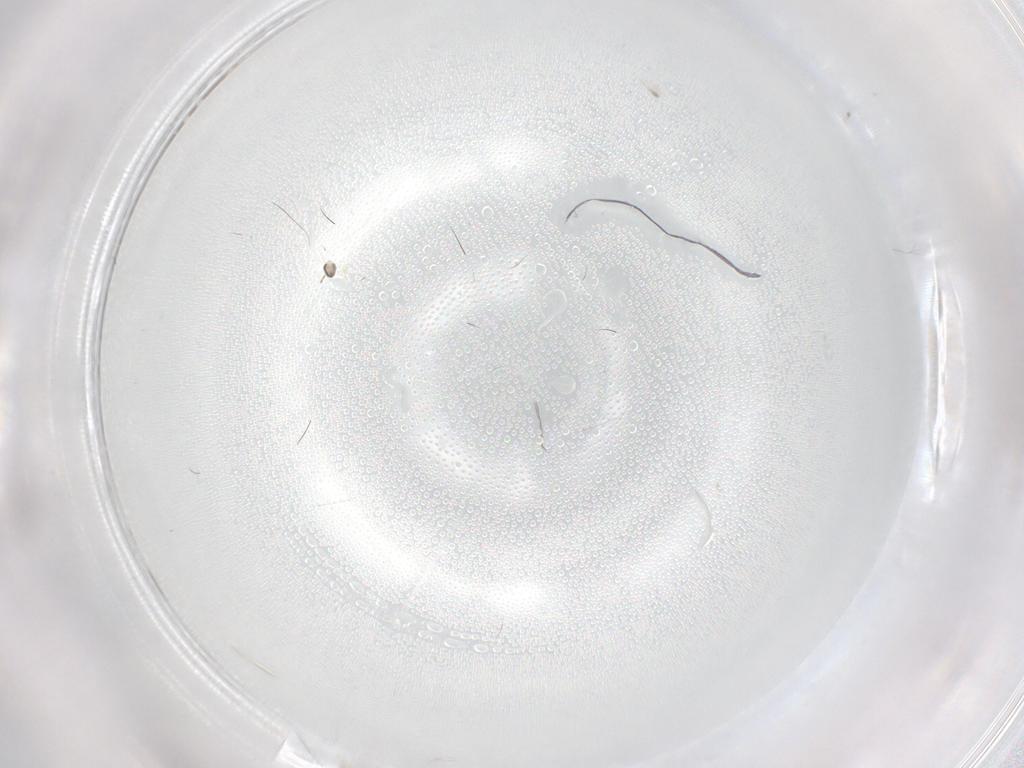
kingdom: Animalia
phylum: Arthropoda
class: Insecta
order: Diptera
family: Cecidomyiidae
